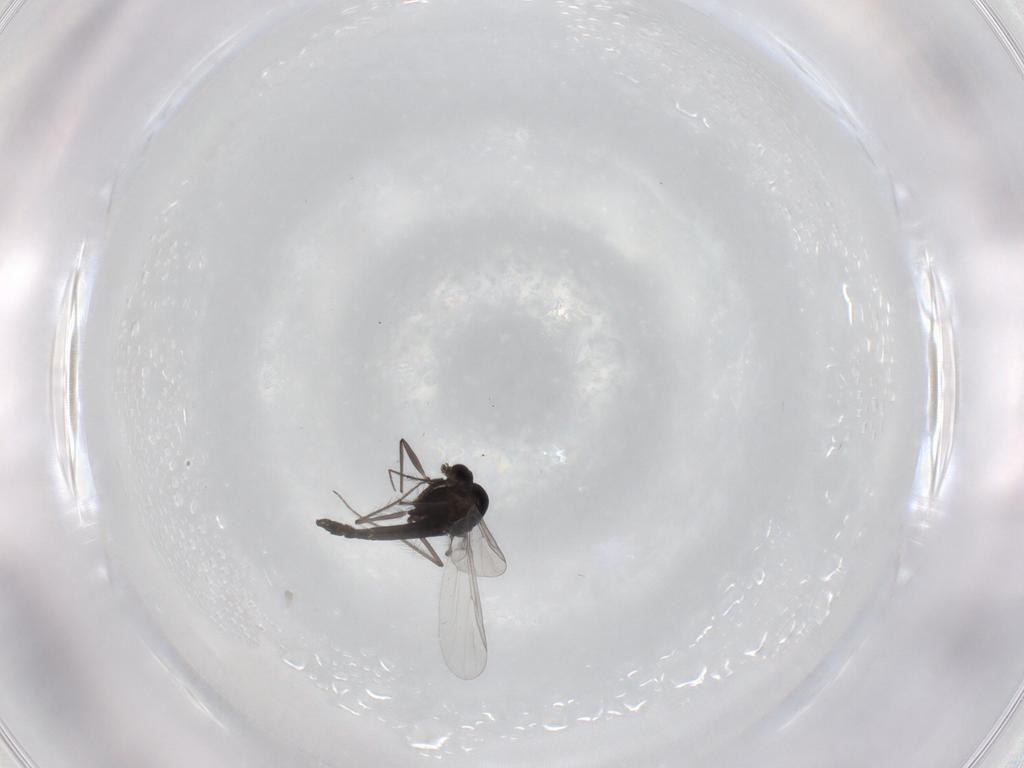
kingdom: Animalia
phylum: Arthropoda
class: Insecta
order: Diptera
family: Chironomidae
